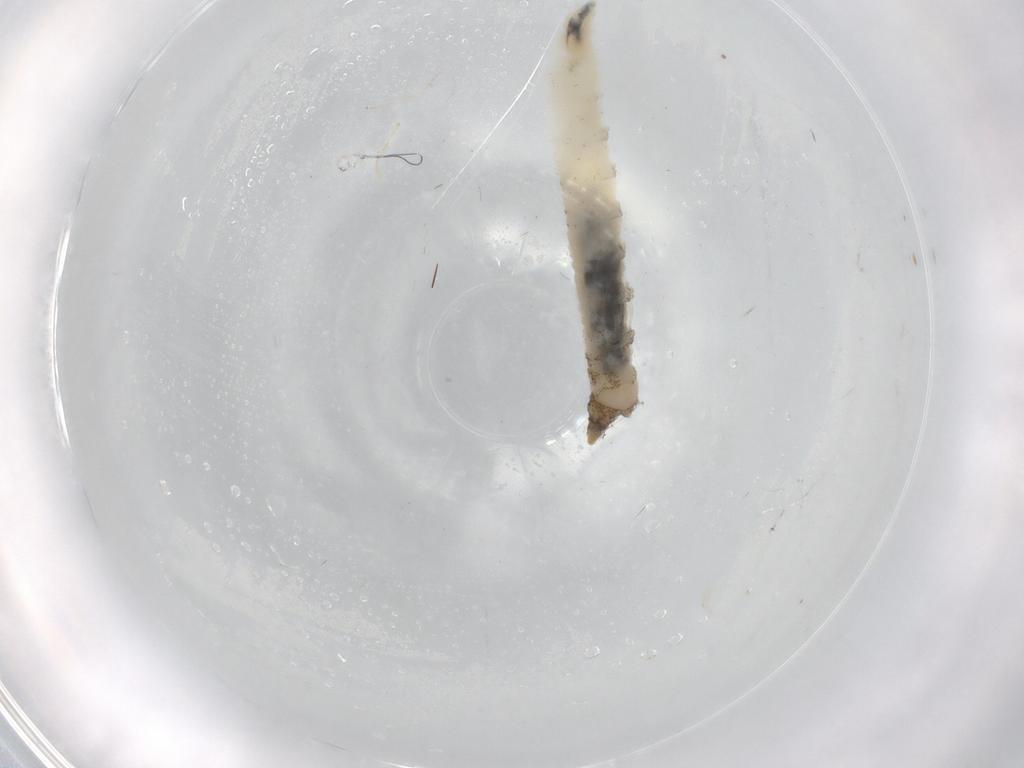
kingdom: Animalia
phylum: Arthropoda
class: Insecta
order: Diptera
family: Drosophilidae
